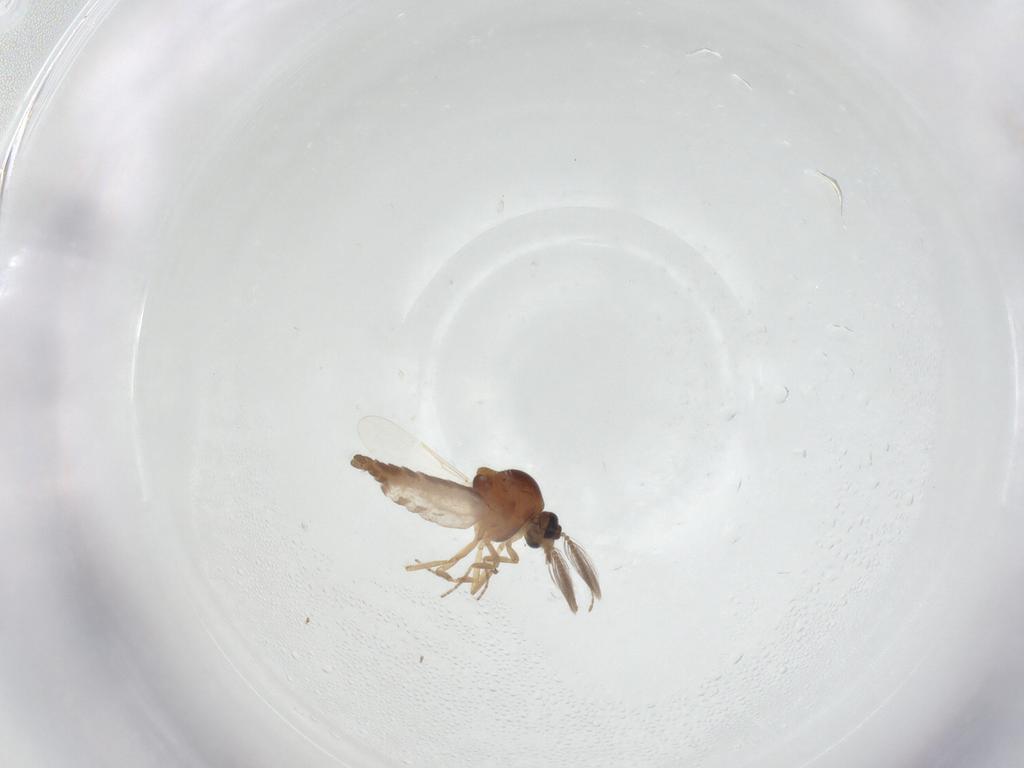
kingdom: Animalia
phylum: Arthropoda
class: Insecta
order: Diptera
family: Ceratopogonidae
